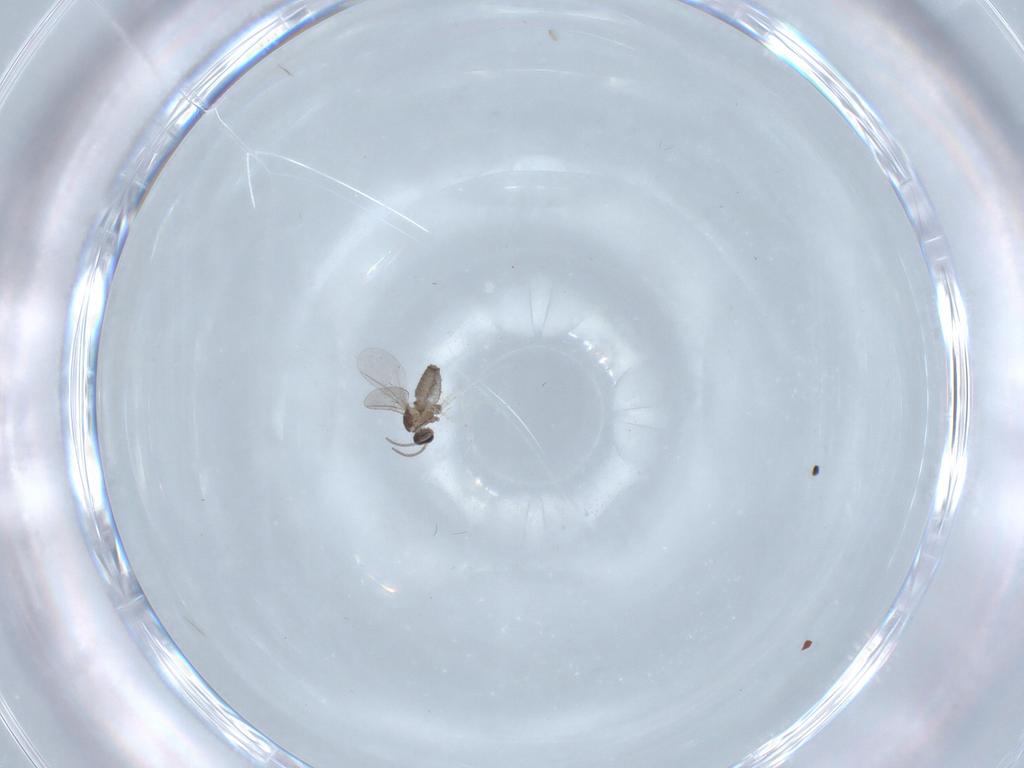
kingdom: Animalia
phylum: Arthropoda
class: Insecta
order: Diptera
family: Cecidomyiidae
